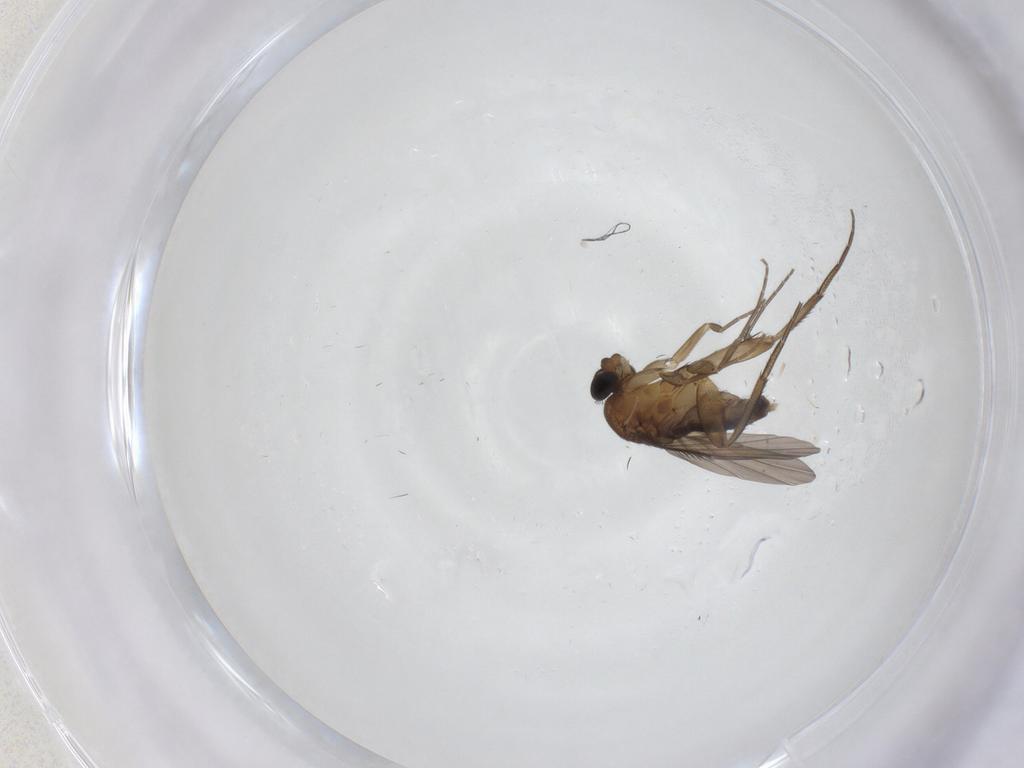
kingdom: Animalia
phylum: Arthropoda
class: Insecta
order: Diptera
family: Phoridae
